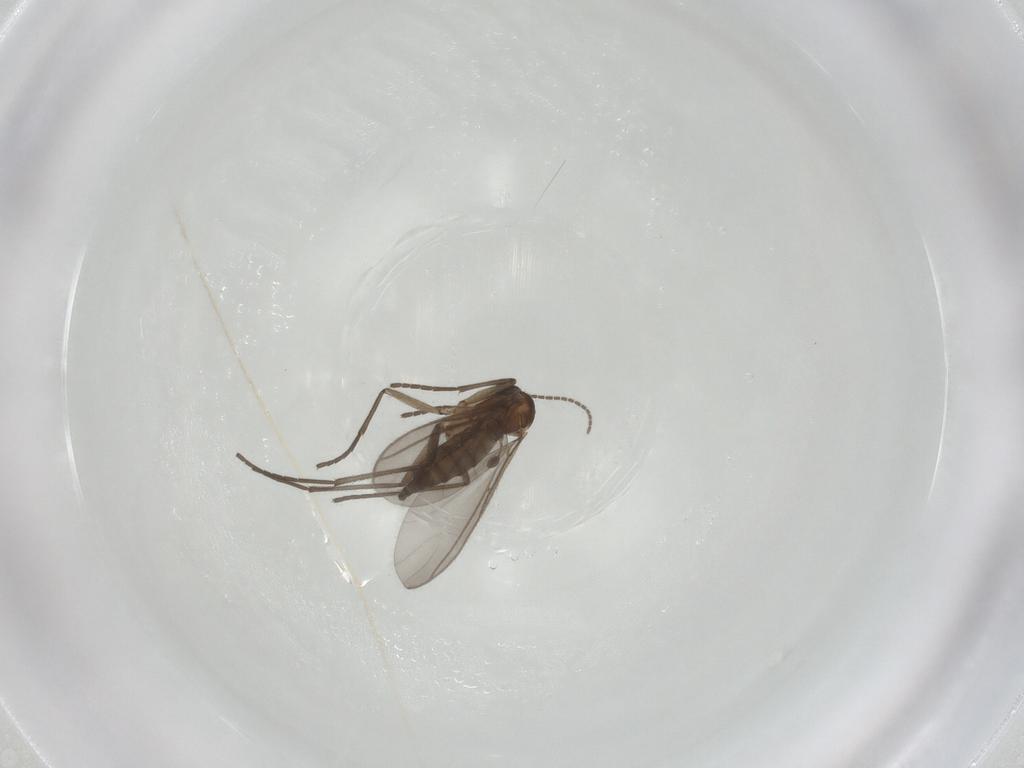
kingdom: Animalia
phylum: Arthropoda
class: Insecta
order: Diptera
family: Sciaridae
